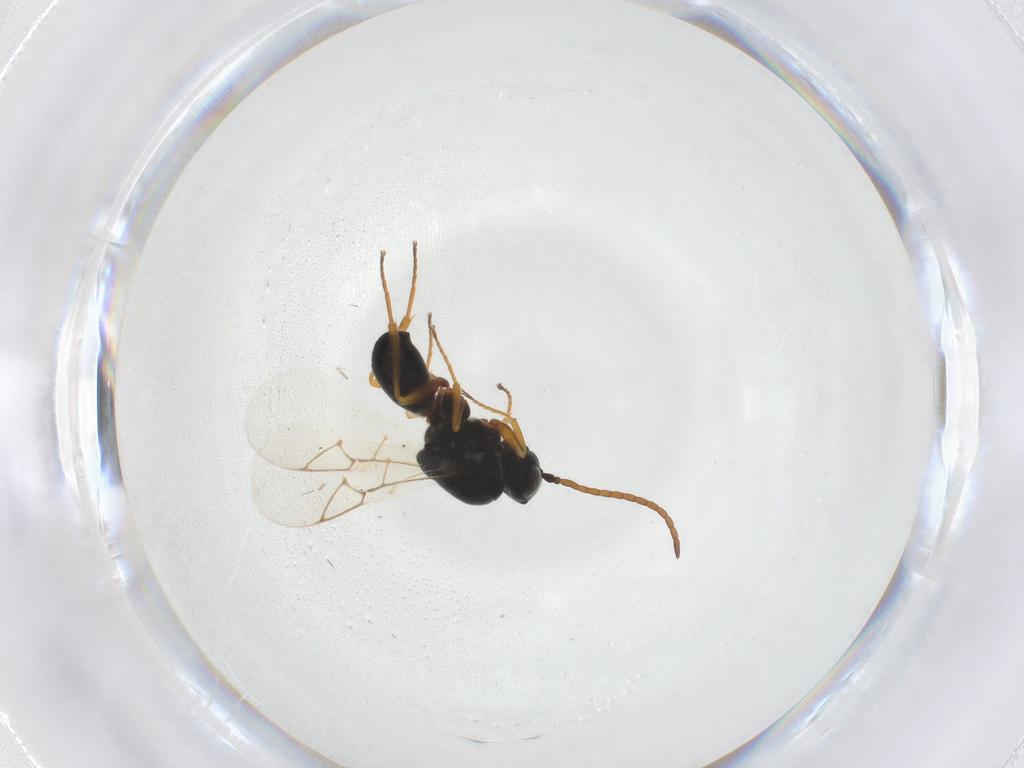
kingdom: Animalia
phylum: Arthropoda
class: Insecta
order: Hymenoptera
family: Figitidae
